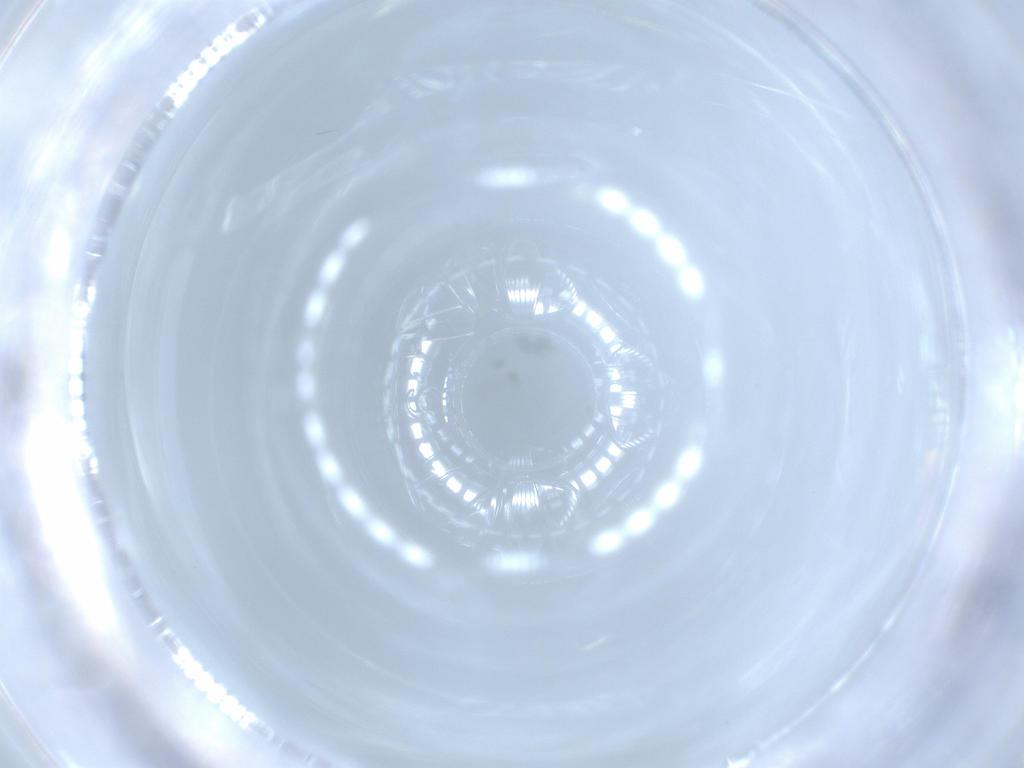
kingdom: Animalia
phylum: Arthropoda
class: Insecta
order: Diptera
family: Cecidomyiidae
